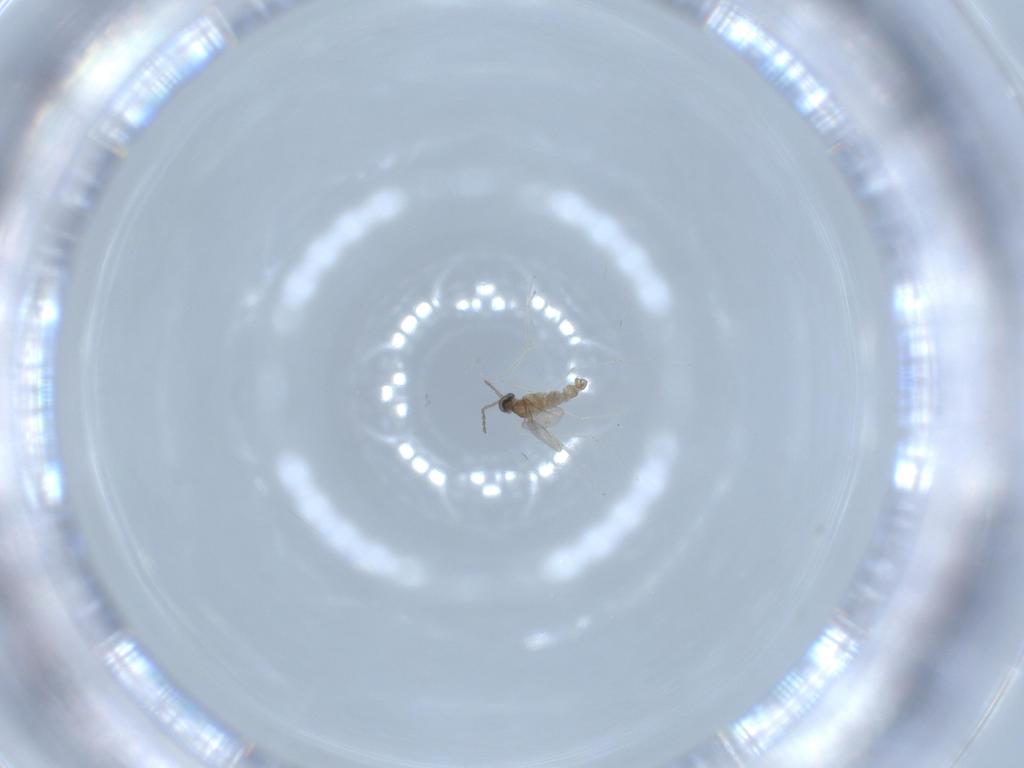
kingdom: Animalia
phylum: Arthropoda
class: Insecta
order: Diptera
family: Cecidomyiidae
